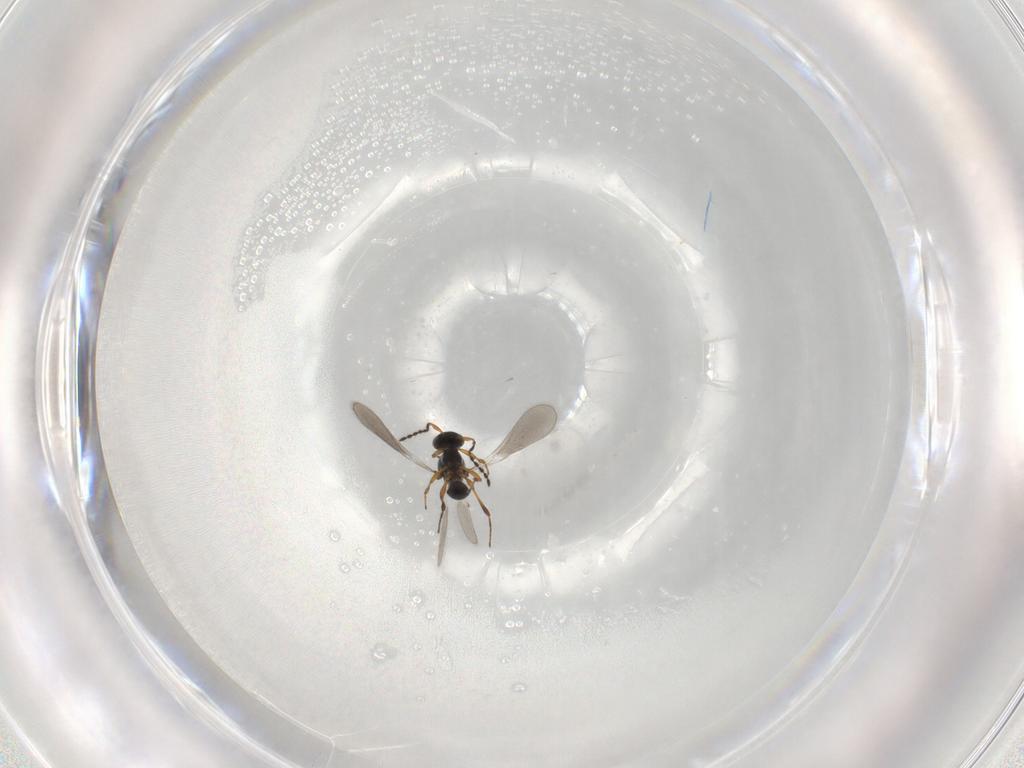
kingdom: Animalia
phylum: Arthropoda
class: Insecta
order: Hymenoptera
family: Platygastridae
